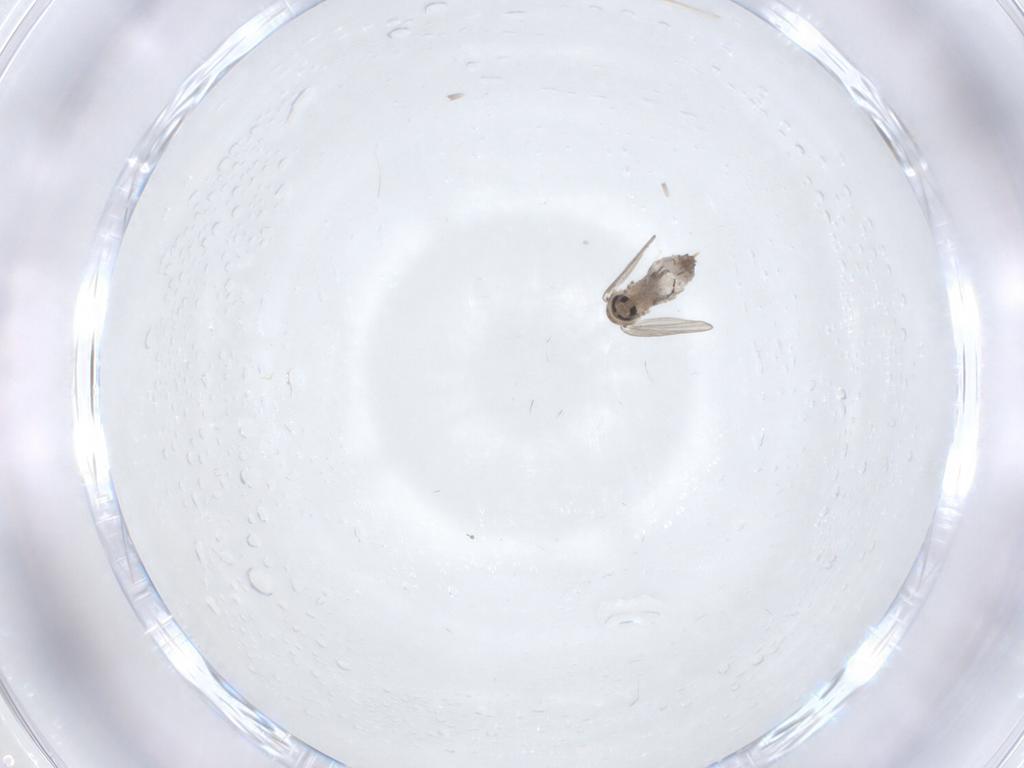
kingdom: Animalia
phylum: Arthropoda
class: Insecta
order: Diptera
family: Psychodidae
